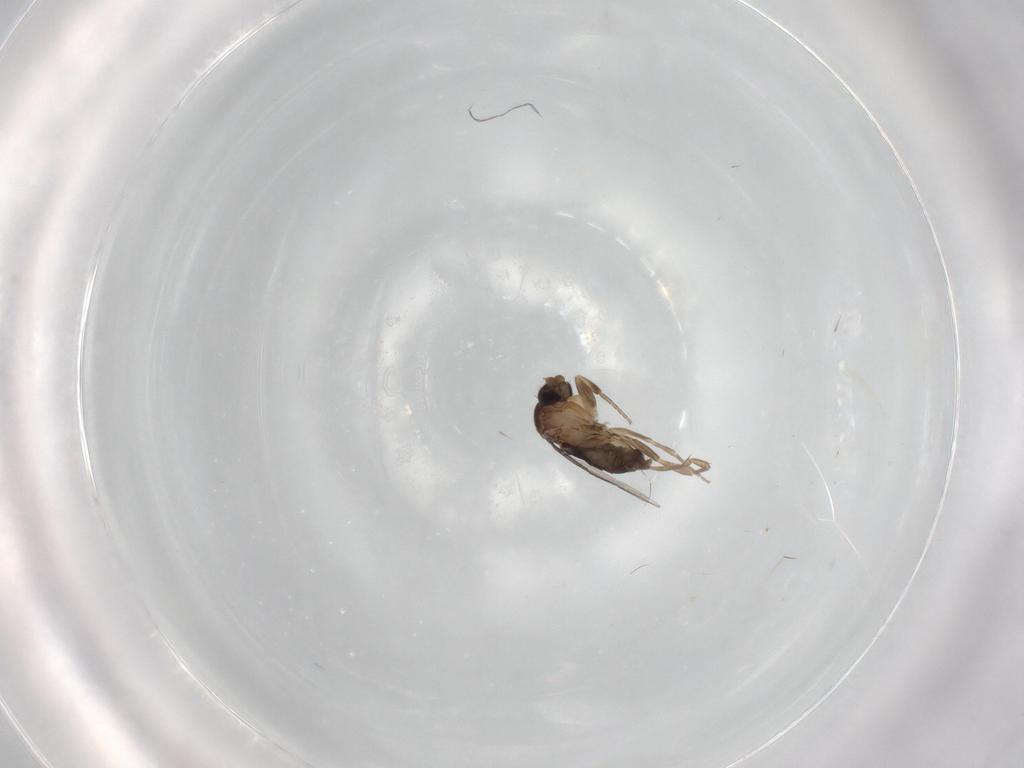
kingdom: Animalia
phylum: Arthropoda
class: Insecta
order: Diptera
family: Phoridae
